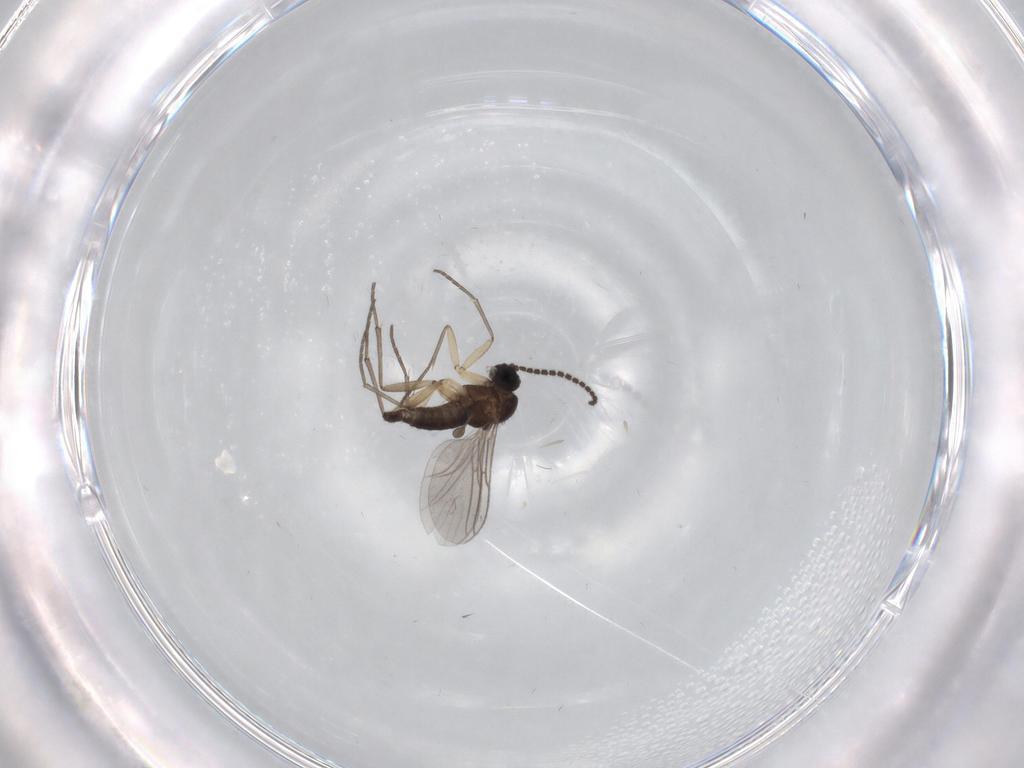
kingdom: Animalia
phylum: Arthropoda
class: Insecta
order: Diptera
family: Sciaridae
